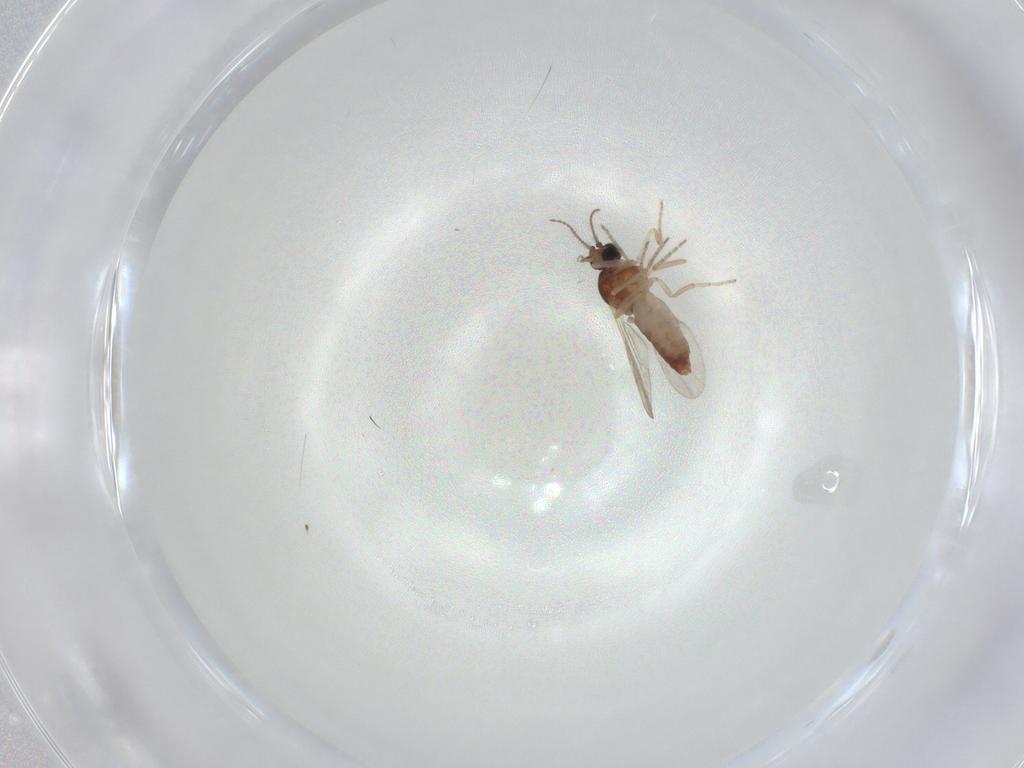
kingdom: Animalia
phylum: Arthropoda
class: Insecta
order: Diptera
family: Ceratopogonidae
